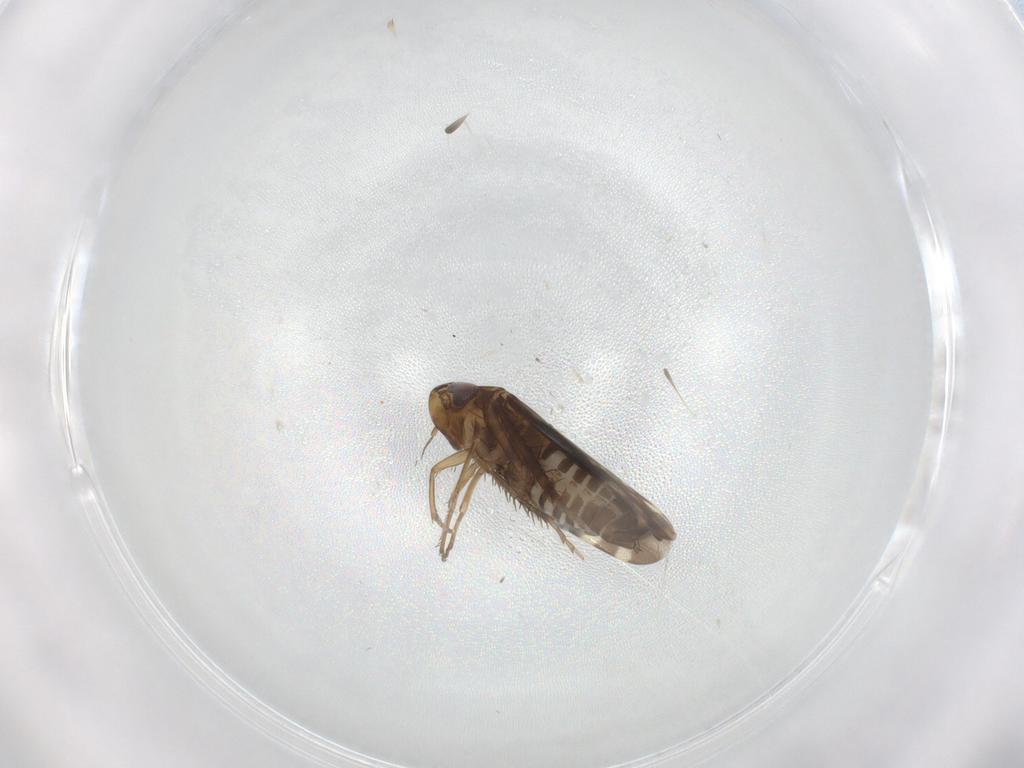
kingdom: Animalia
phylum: Arthropoda
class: Insecta
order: Hemiptera
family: Cicadellidae
